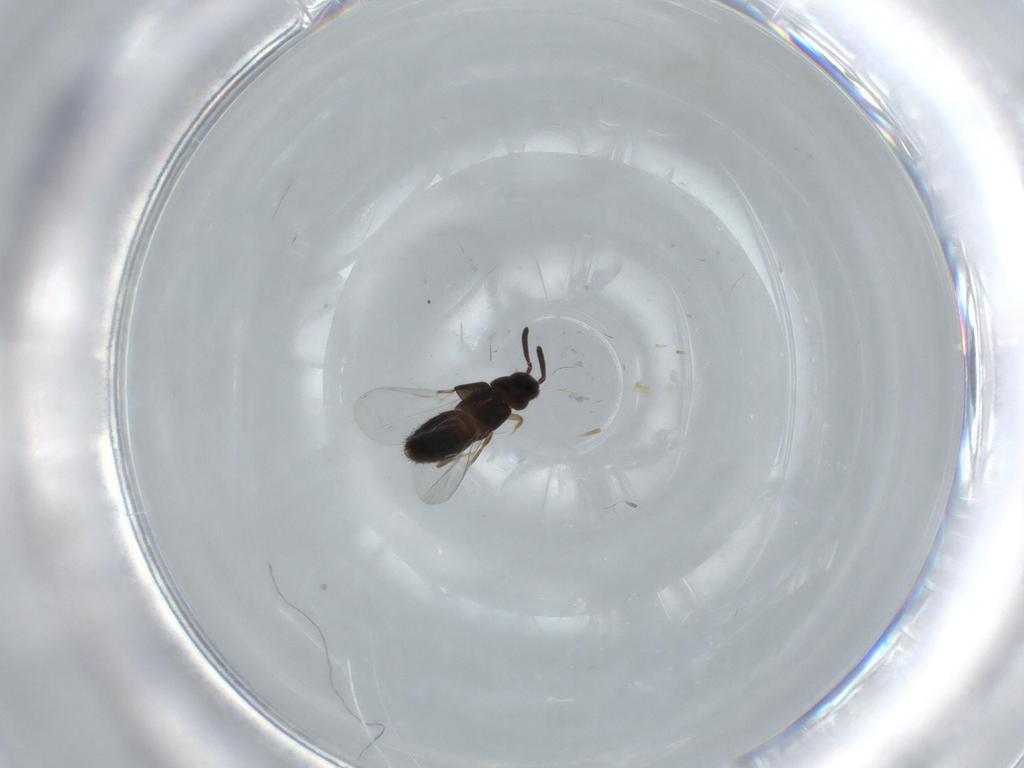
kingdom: Animalia
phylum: Arthropoda
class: Insecta
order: Coleoptera
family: Staphylinidae
